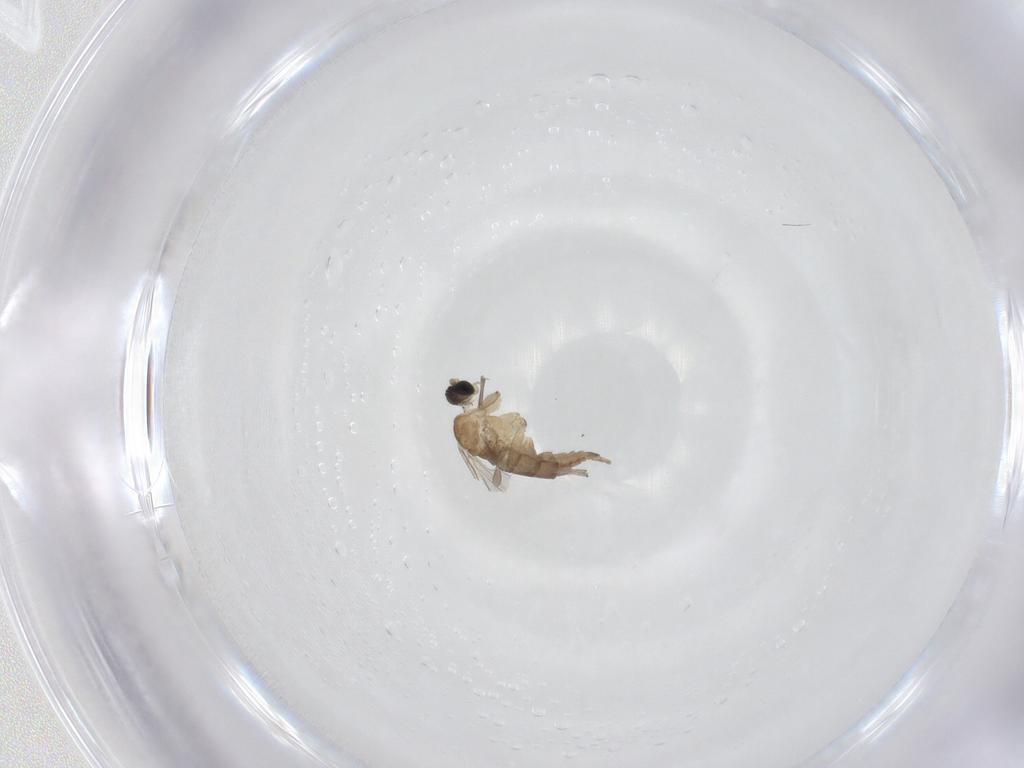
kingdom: Animalia
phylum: Arthropoda
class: Insecta
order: Diptera
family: Sciaridae
